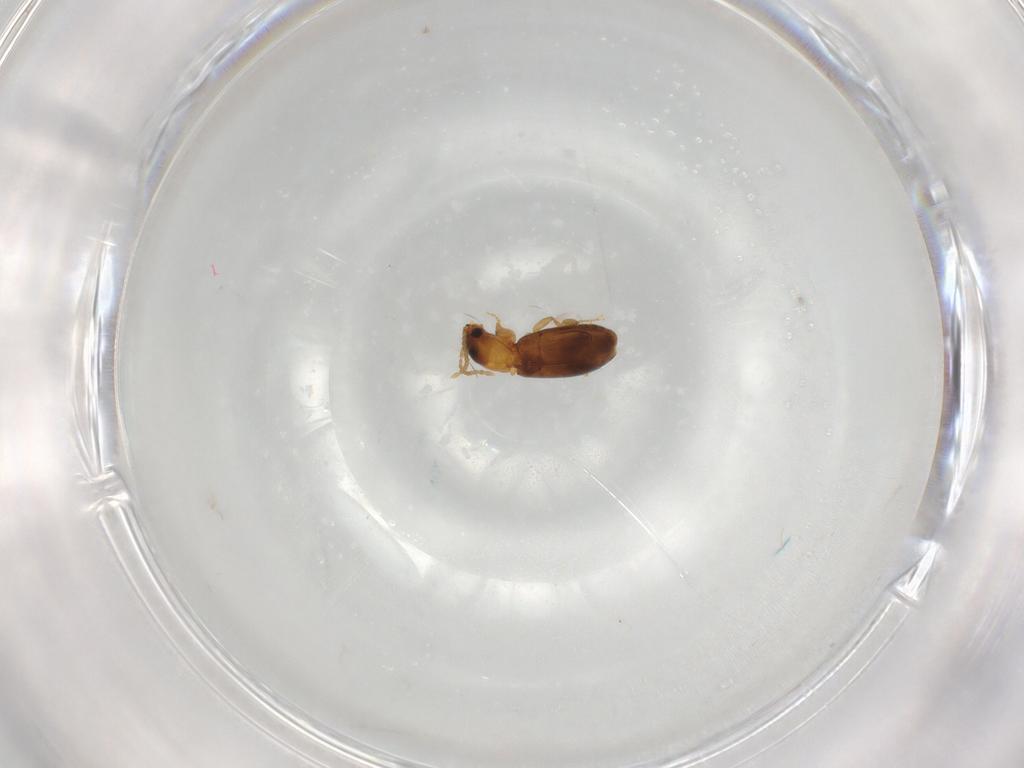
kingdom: Animalia
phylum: Arthropoda
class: Insecta
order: Coleoptera
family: Carabidae
